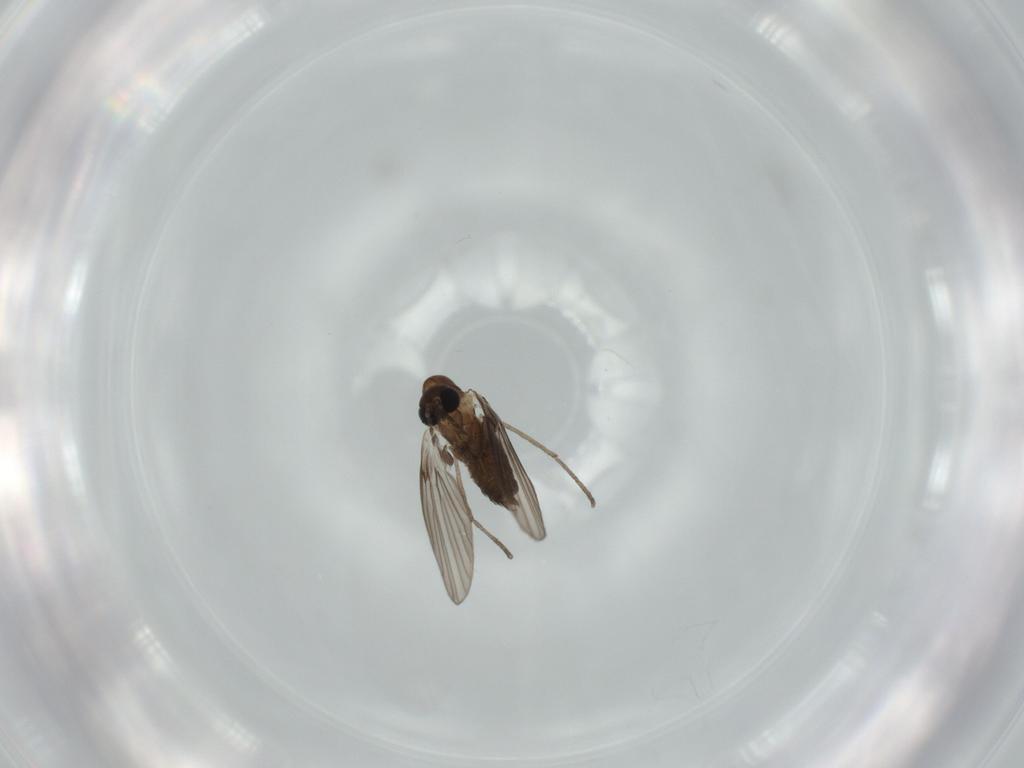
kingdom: Animalia
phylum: Arthropoda
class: Insecta
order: Diptera
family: Psychodidae
